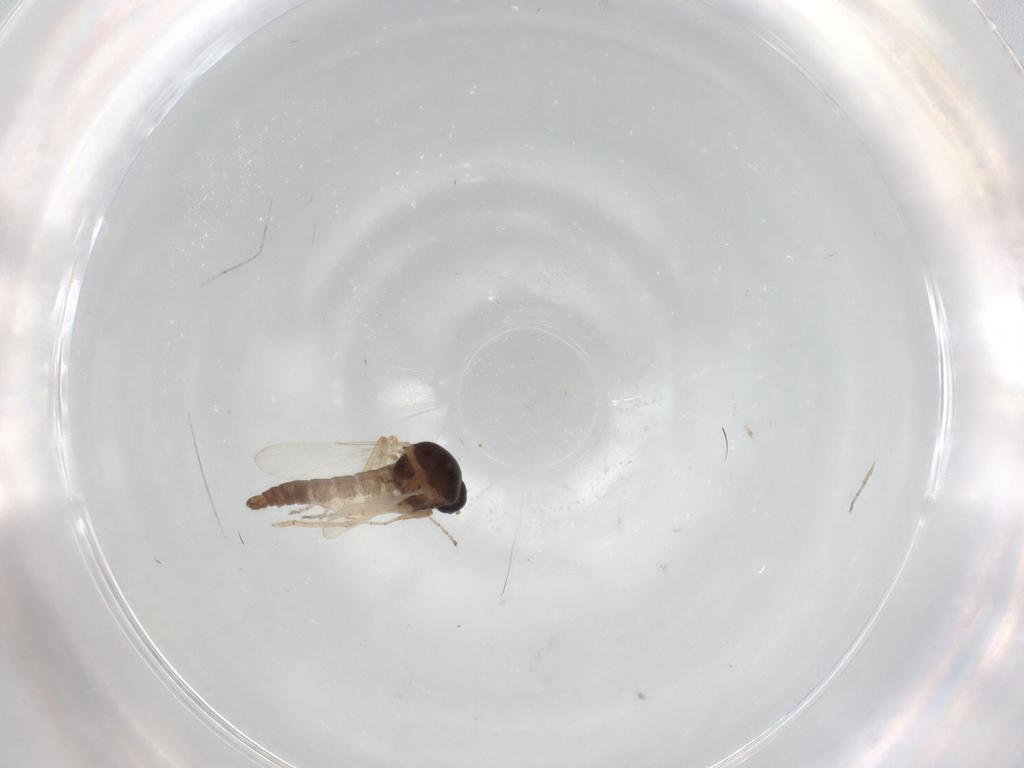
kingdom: Animalia
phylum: Arthropoda
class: Insecta
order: Diptera
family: Ceratopogonidae
